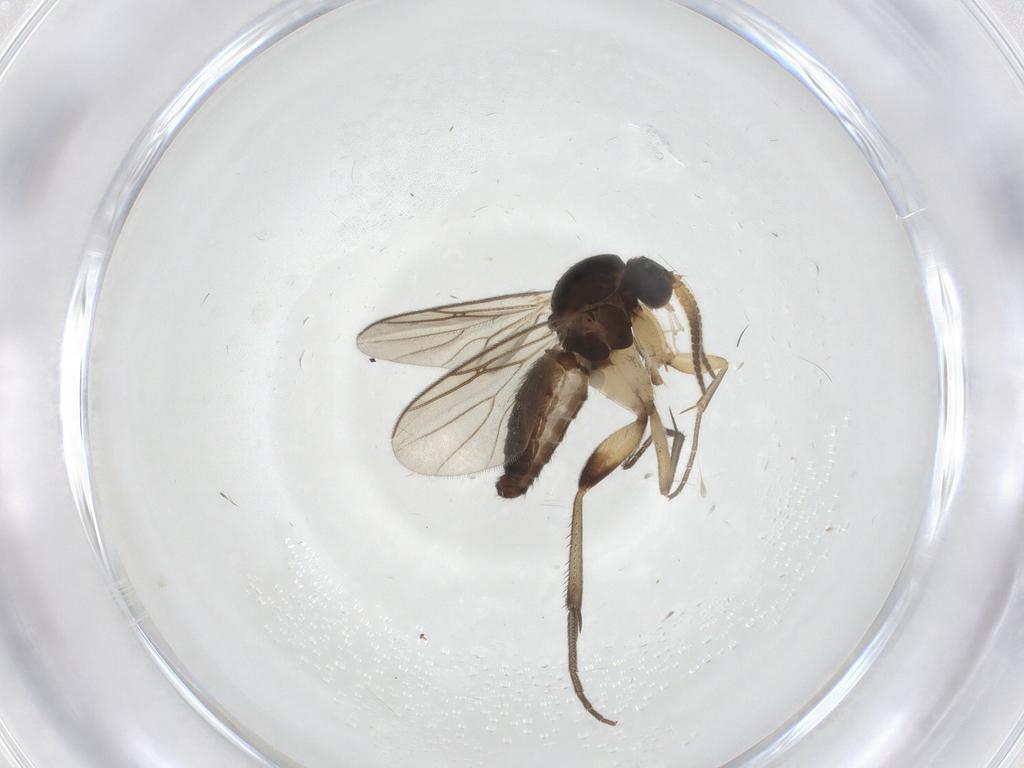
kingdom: Animalia
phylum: Arthropoda
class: Insecta
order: Diptera
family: Mycetophilidae
